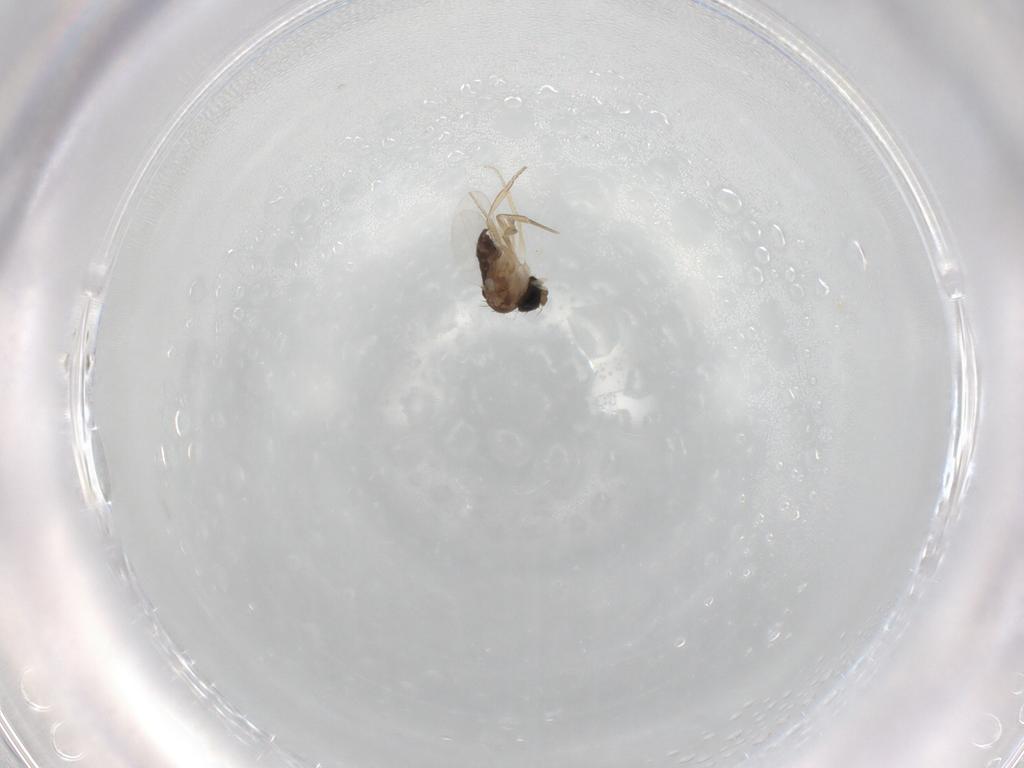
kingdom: Animalia
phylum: Arthropoda
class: Insecta
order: Diptera
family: Phoridae
